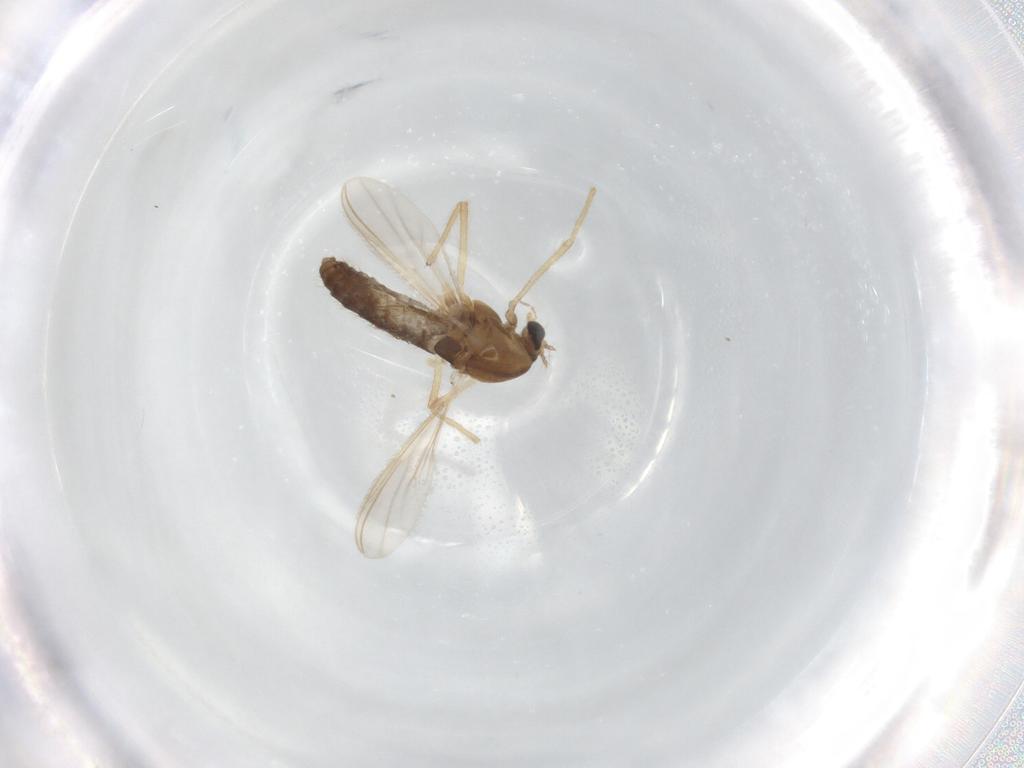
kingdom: Animalia
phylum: Arthropoda
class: Insecta
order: Diptera
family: Chironomidae
